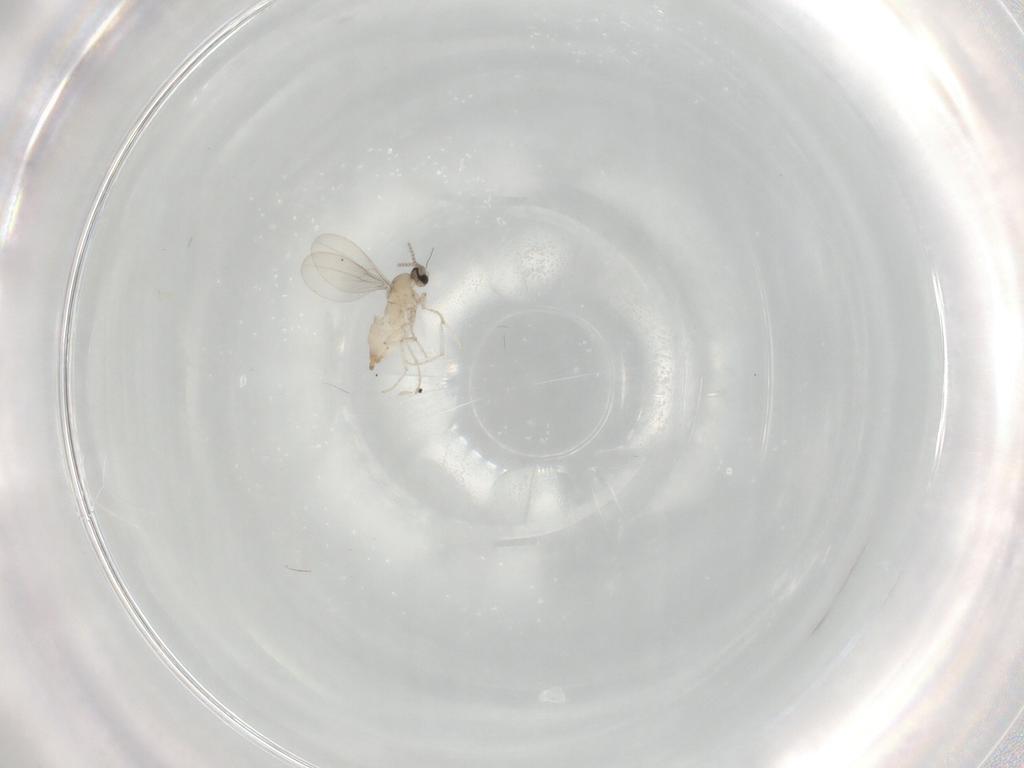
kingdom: Animalia
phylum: Arthropoda
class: Insecta
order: Diptera
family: Cecidomyiidae
